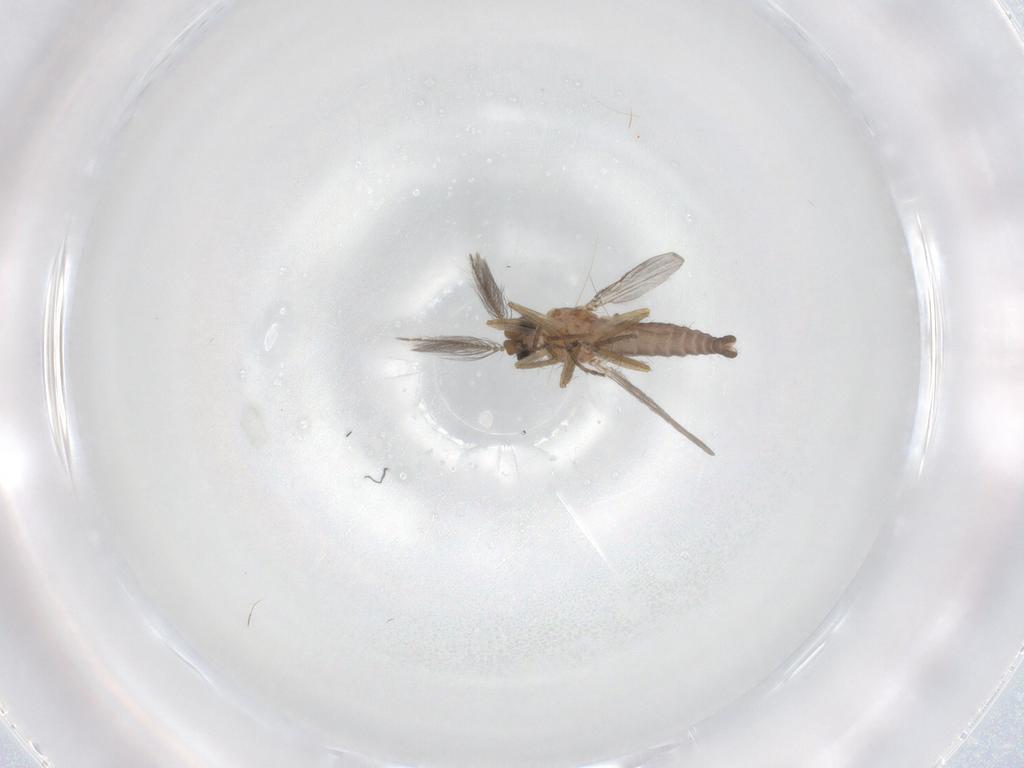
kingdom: Animalia
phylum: Arthropoda
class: Insecta
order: Diptera
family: Ceratopogonidae
